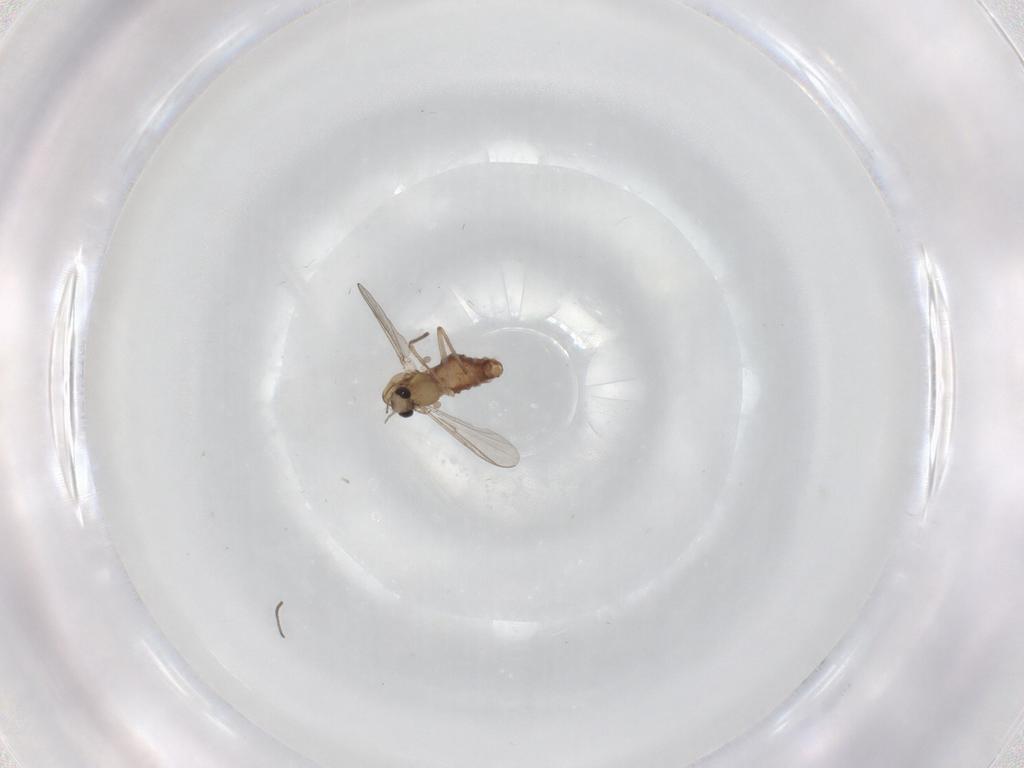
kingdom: Animalia
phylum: Arthropoda
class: Insecta
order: Diptera
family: Chironomidae
